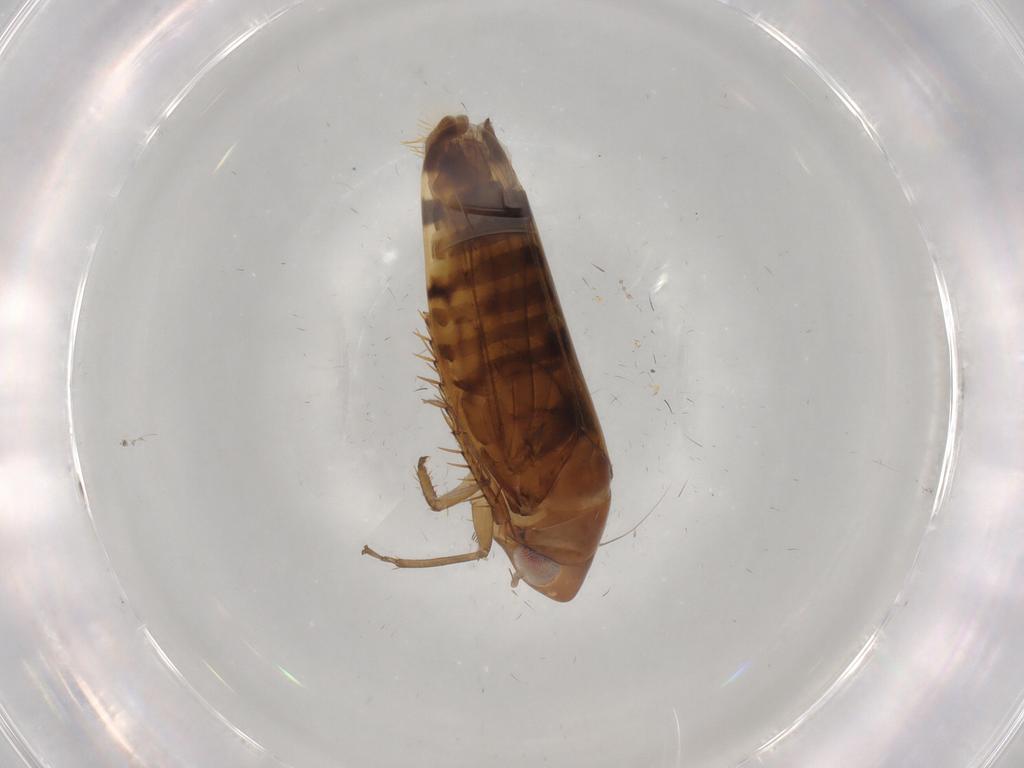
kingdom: Animalia
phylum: Arthropoda
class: Insecta
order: Hemiptera
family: Cicadellidae
